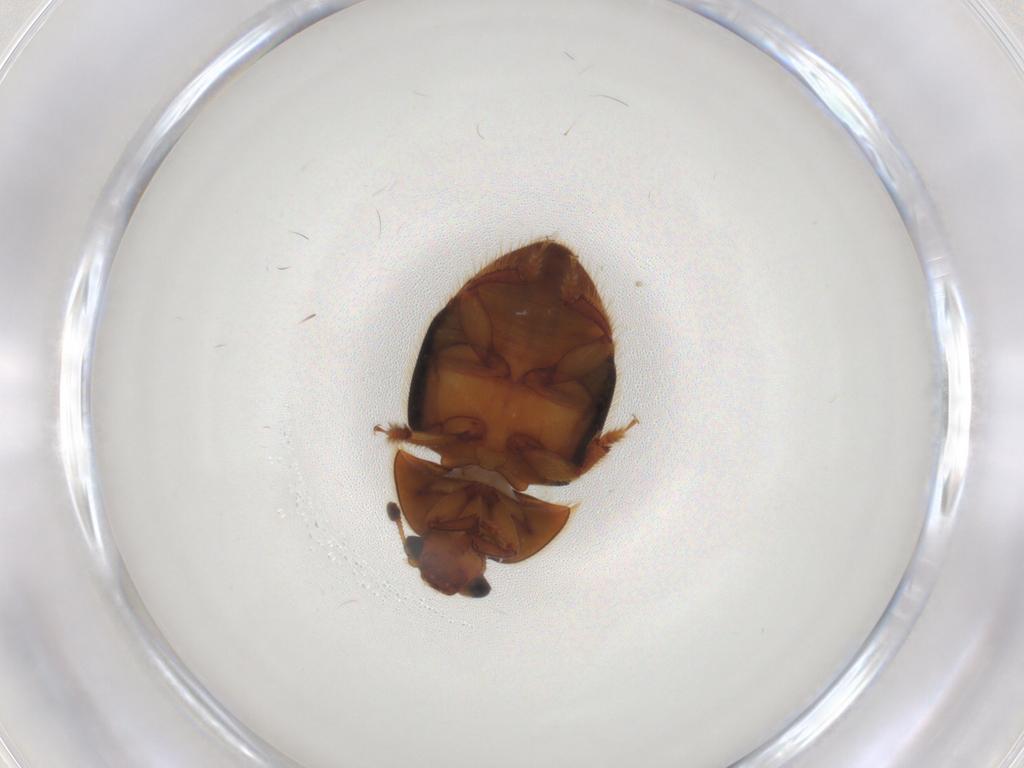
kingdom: Animalia
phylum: Arthropoda
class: Insecta
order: Coleoptera
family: Nitidulidae
